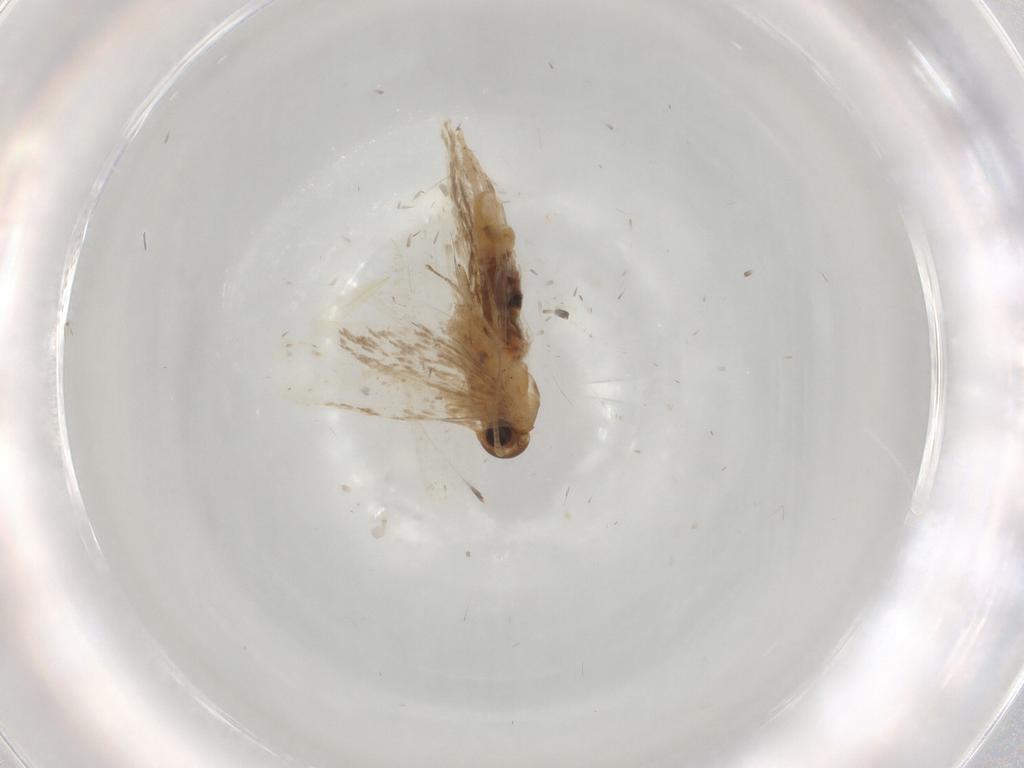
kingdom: Animalia
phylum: Arthropoda
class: Insecta
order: Lepidoptera
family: Oecophoridae
